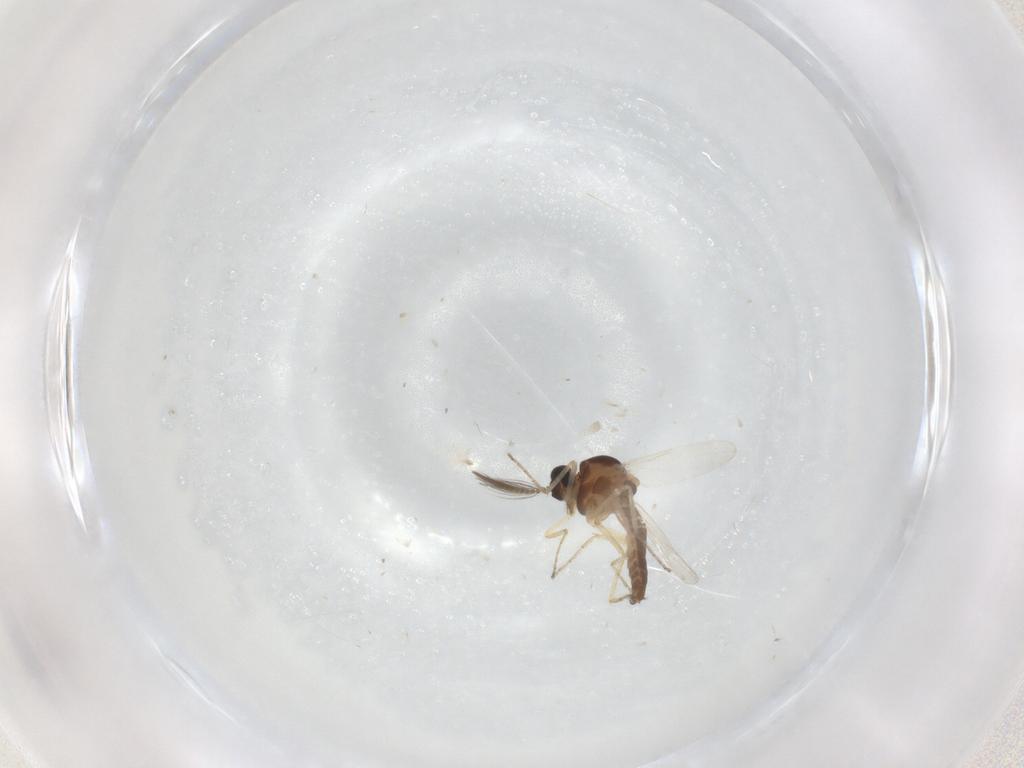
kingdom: Animalia
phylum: Arthropoda
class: Insecta
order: Diptera
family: Ceratopogonidae
